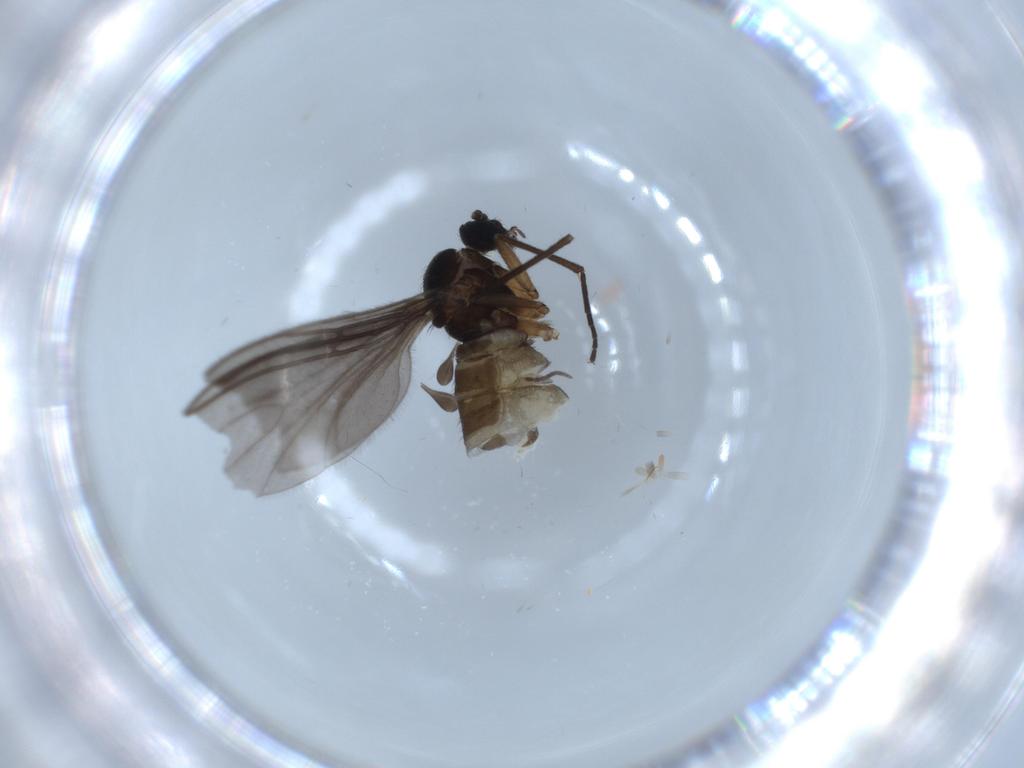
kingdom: Animalia
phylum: Arthropoda
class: Insecta
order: Diptera
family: Sciaridae
